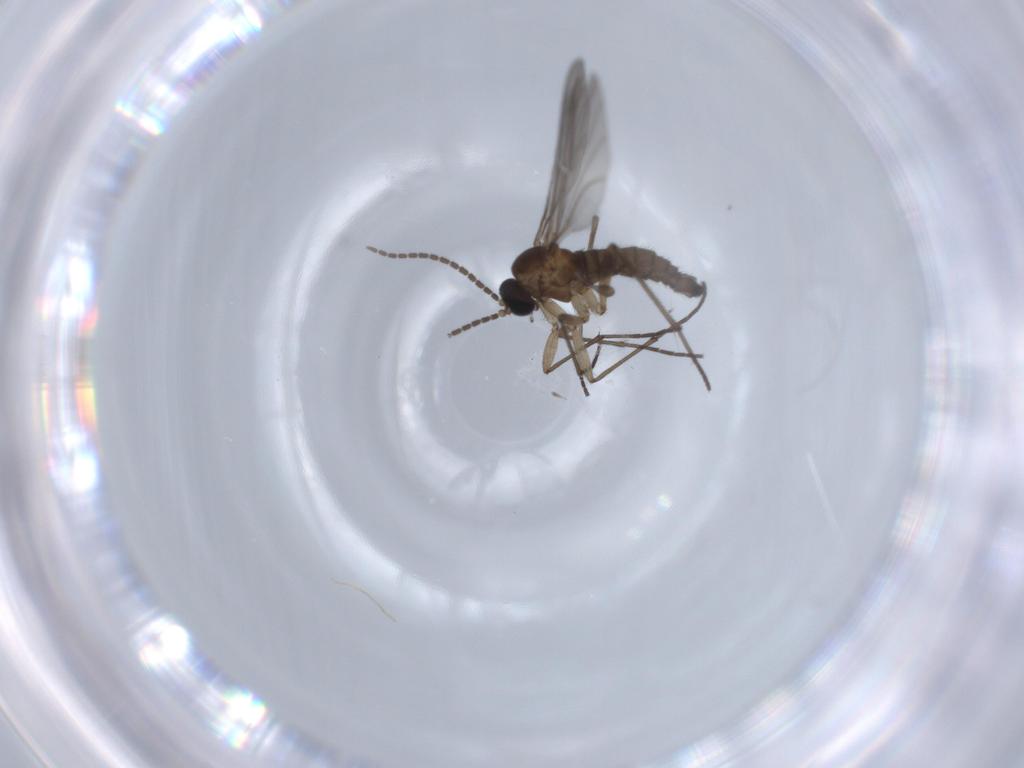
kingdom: Animalia
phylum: Arthropoda
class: Insecta
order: Diptera
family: Sciaridae
